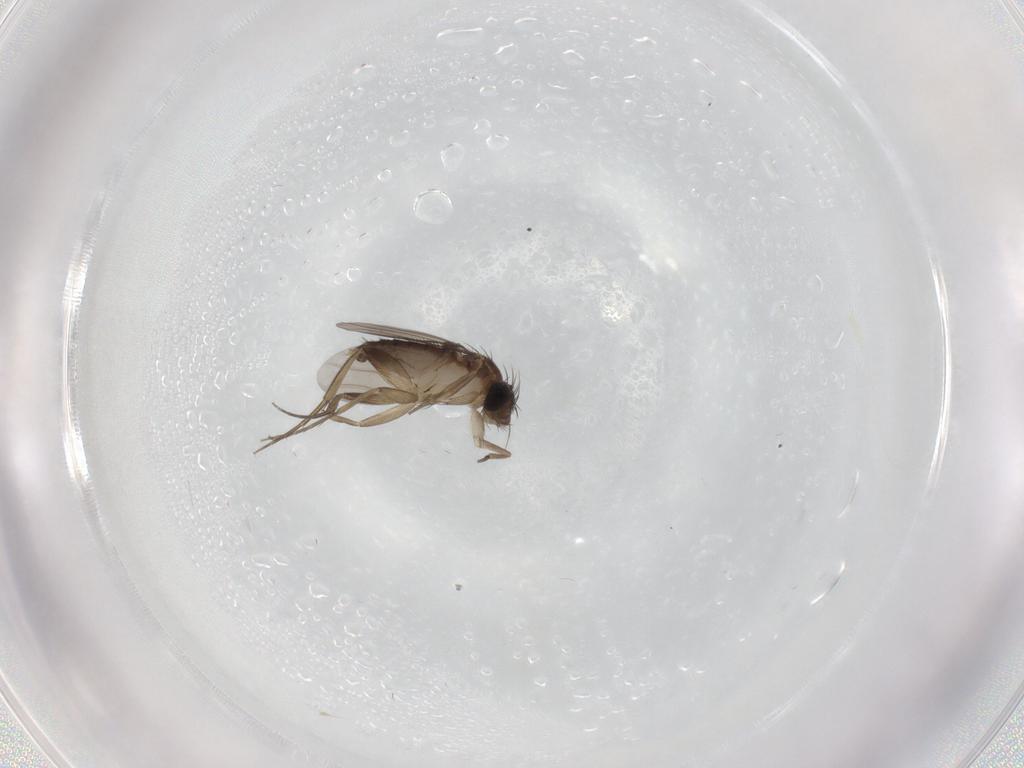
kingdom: Animalia
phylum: Arthropoda
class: Insecta
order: Diptera
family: Phoridae
